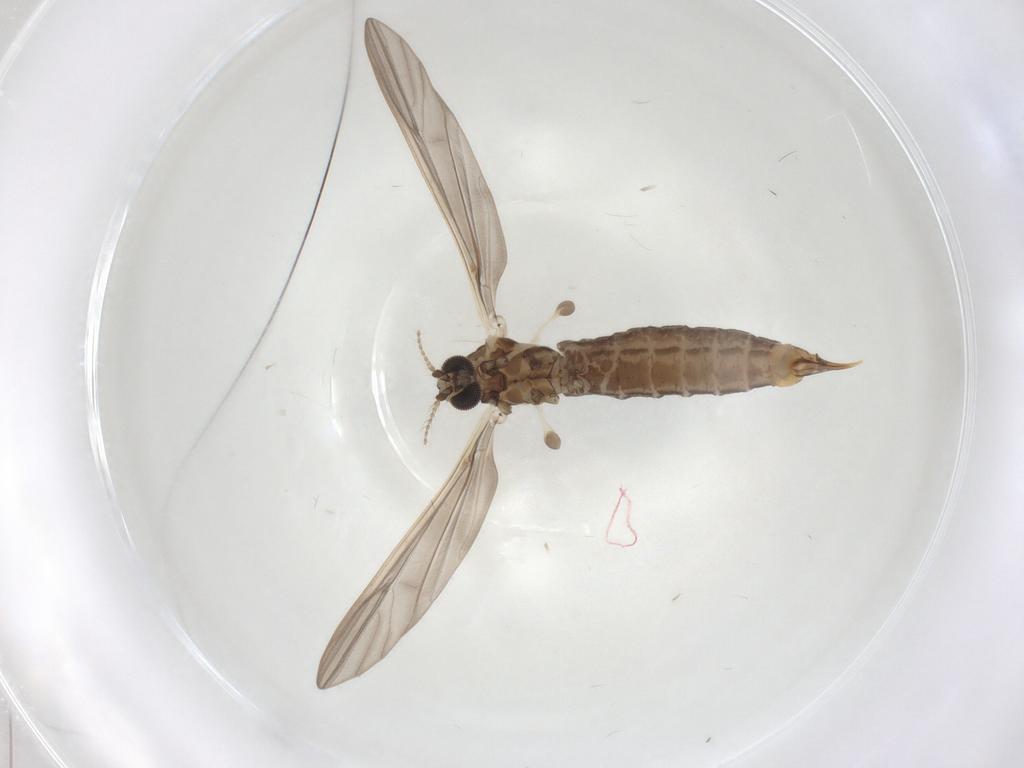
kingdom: Animalia
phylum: Arthropoda
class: Insecta
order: Diptera
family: Limoniidae
